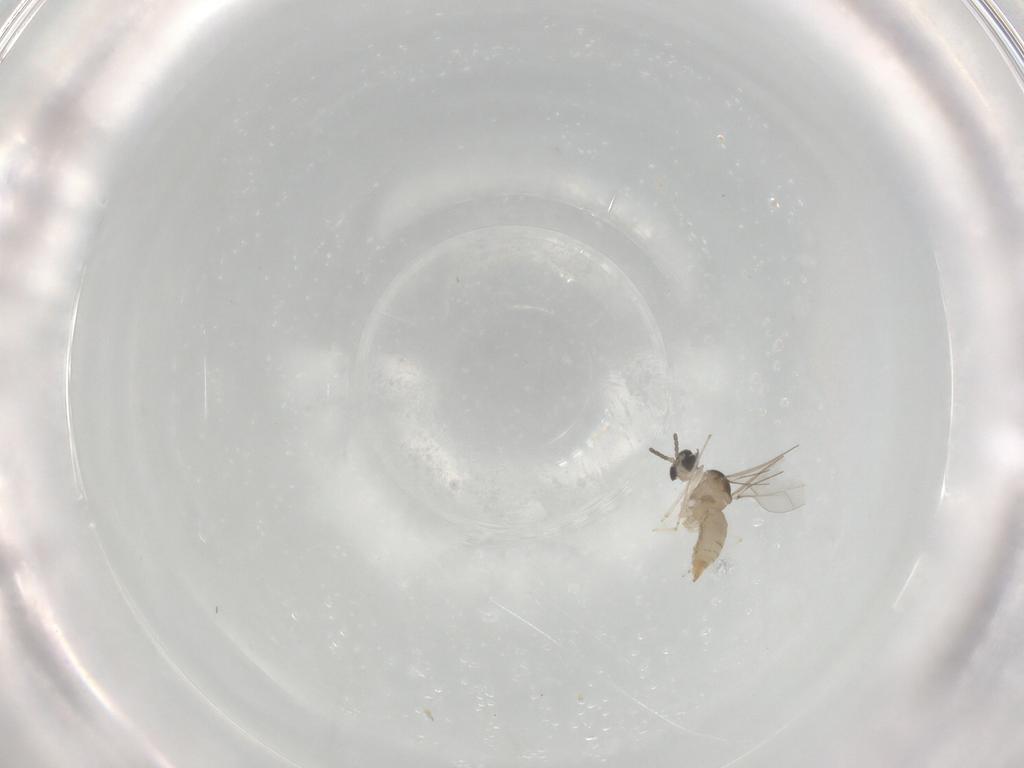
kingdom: Animalia
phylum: Arthropoda
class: Insecta
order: Diptera
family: Cecidomyiidae
